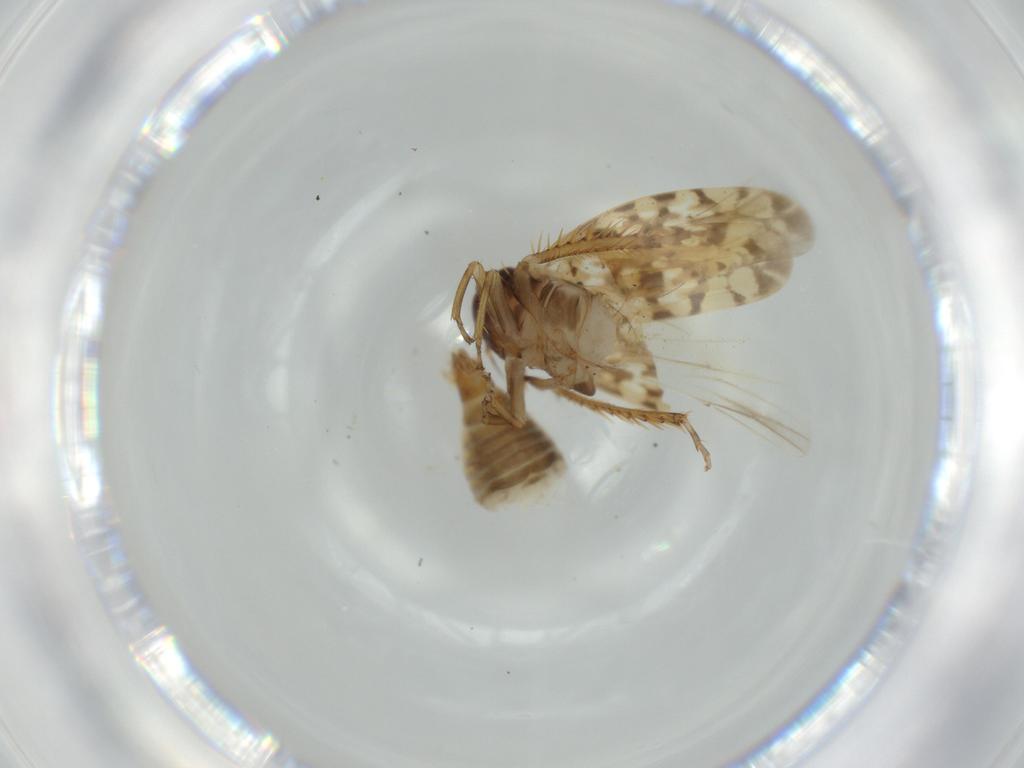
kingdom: Animalia
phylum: Arthropoda
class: Insecta
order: Hemiptera
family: Cicadellidae
